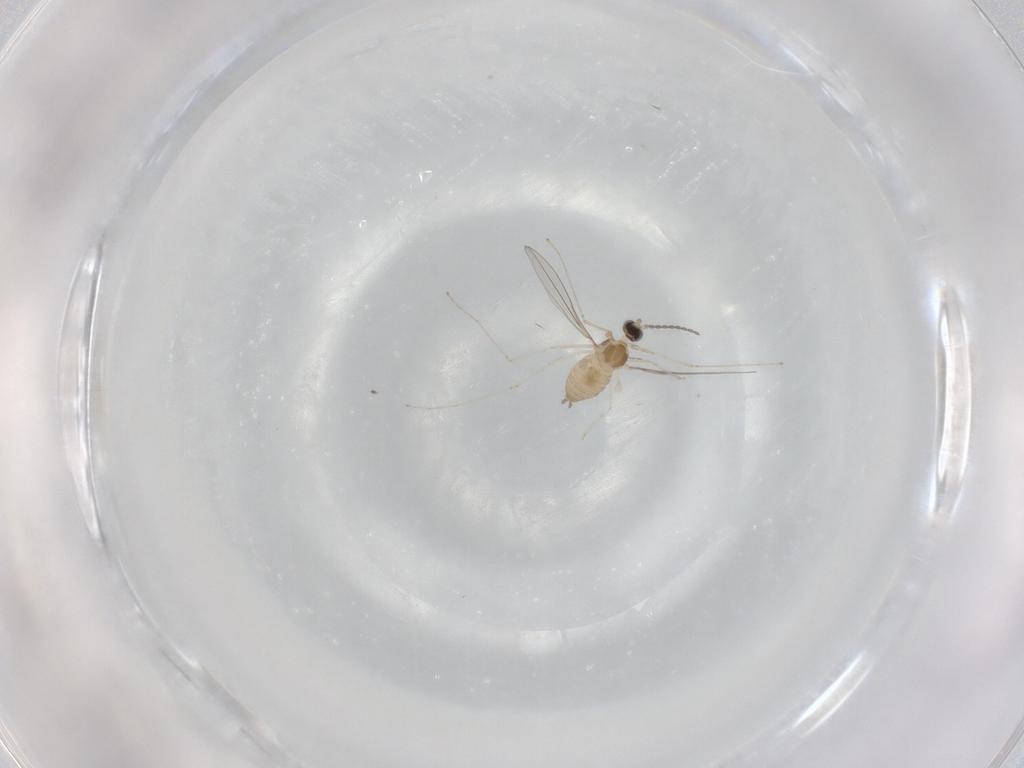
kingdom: Animalia
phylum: Arthropoda
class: Insecta
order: Diptera
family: Cecidomyiidae
